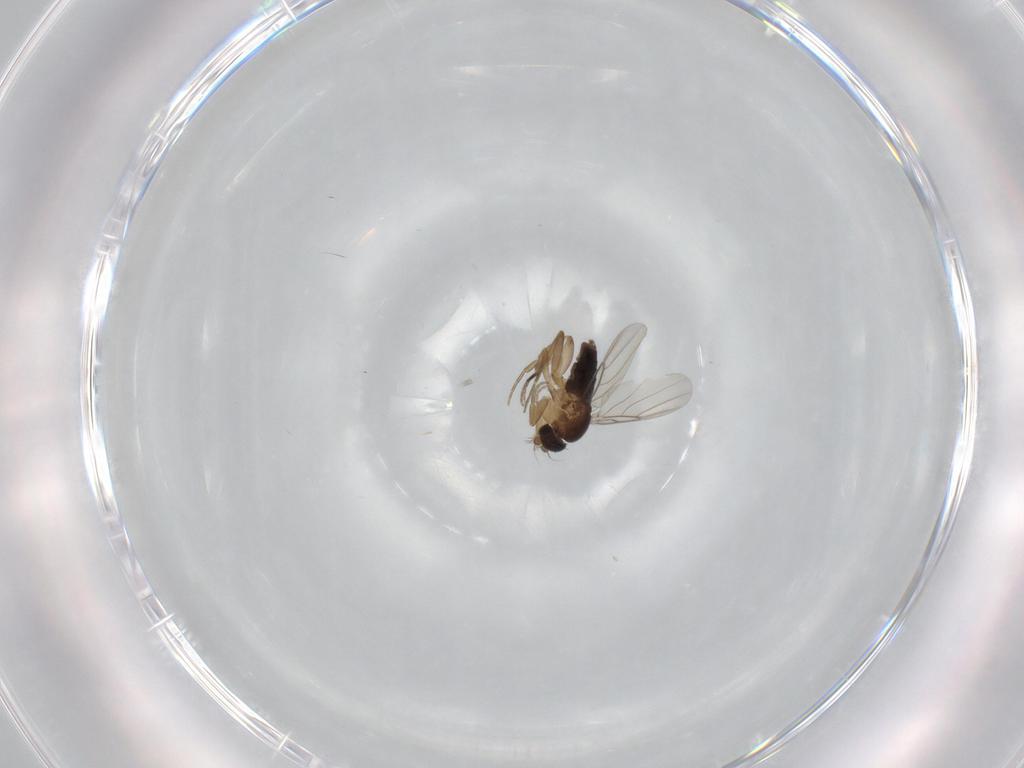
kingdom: Animalia
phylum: Arthropoda
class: Insecta
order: Diptera
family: Phoridae
